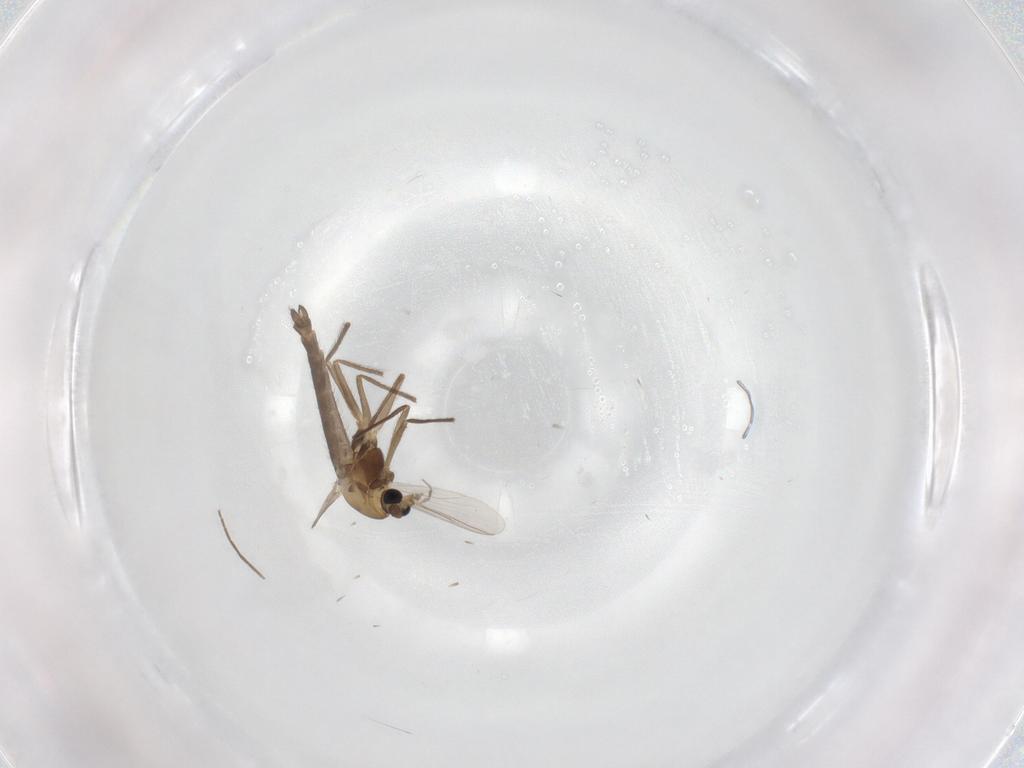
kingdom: Animalia
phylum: Arthropoda
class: Insecta
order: Diptera
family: Chironomidae
